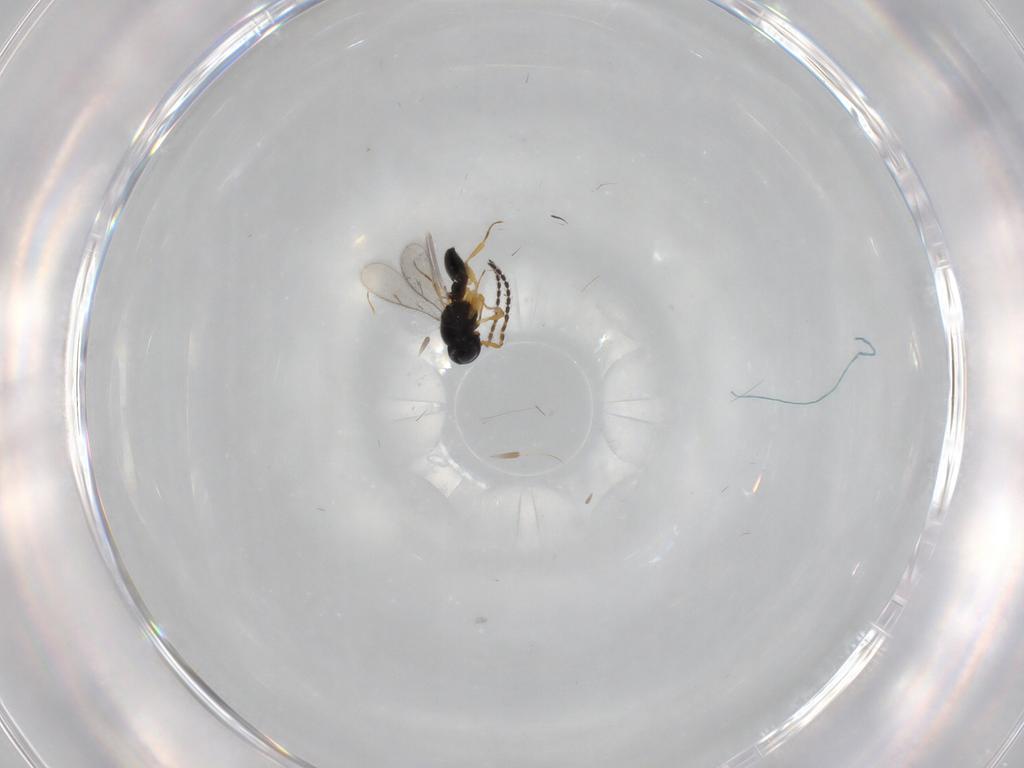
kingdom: Animalia
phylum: Arthropoda
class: Insecta
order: Hymenoptera
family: Scelionidae
